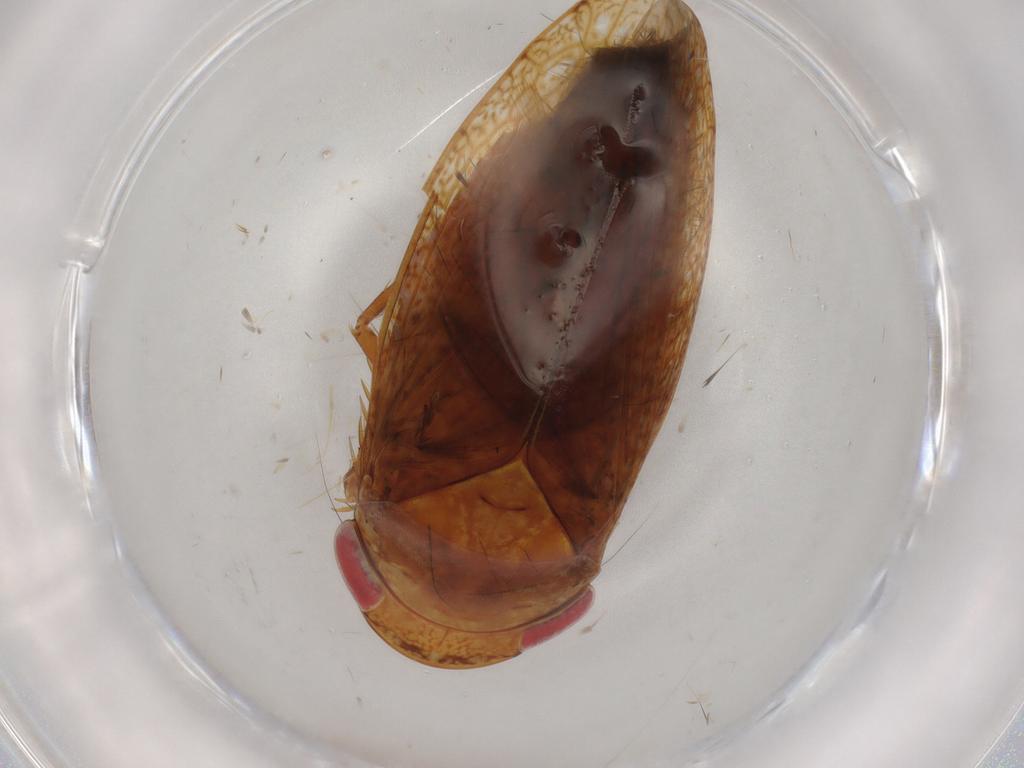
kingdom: Animalia
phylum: Arthropoda
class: Insecta
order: Hemiptera
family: Cicadellidae
